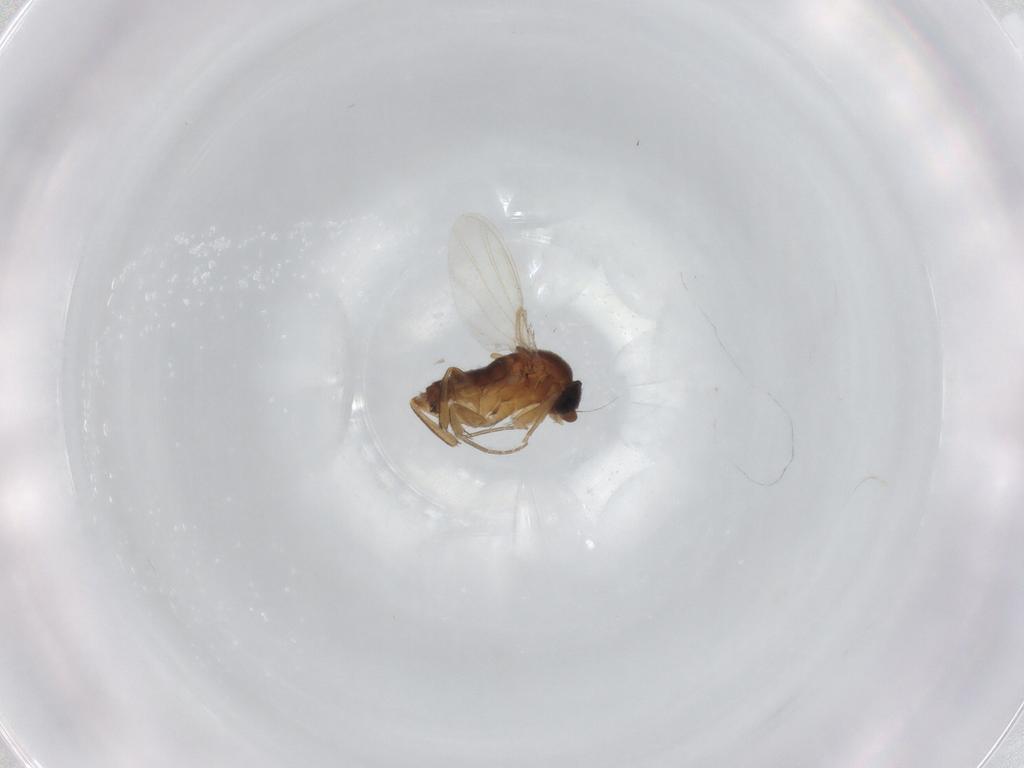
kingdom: Animalia
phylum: Arthropoda
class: Insecta
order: Diptera
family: Phoridae
